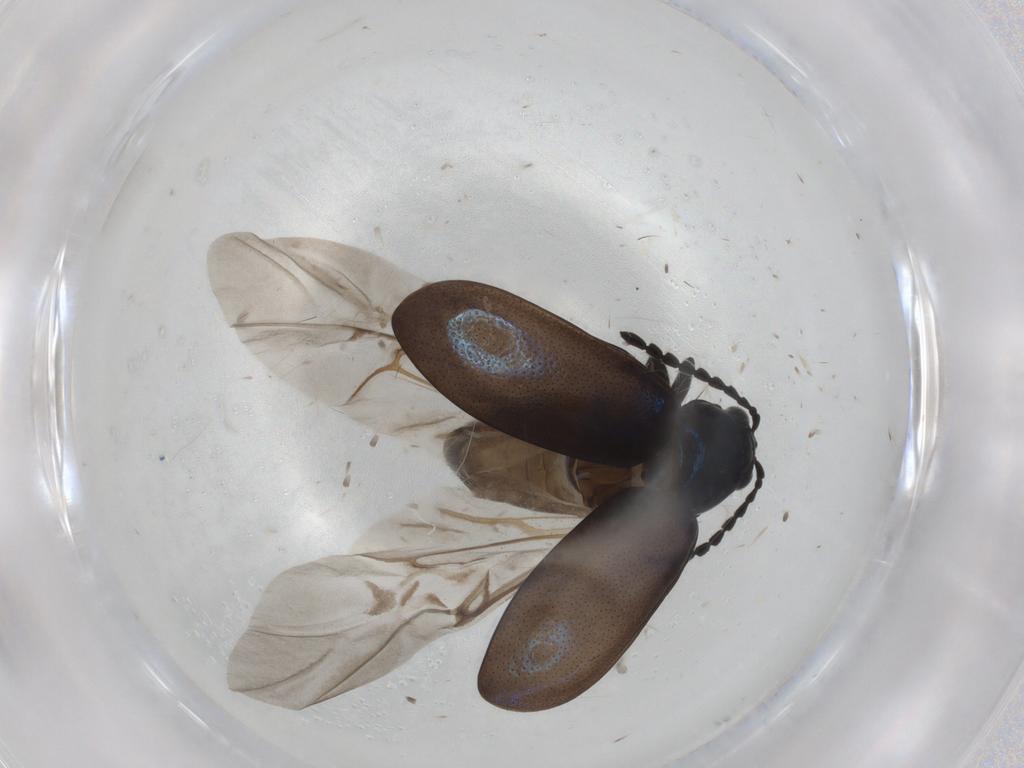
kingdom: Animalia
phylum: Arthropoda
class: Insecta
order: Coleoptera
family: Chrysomelidae
